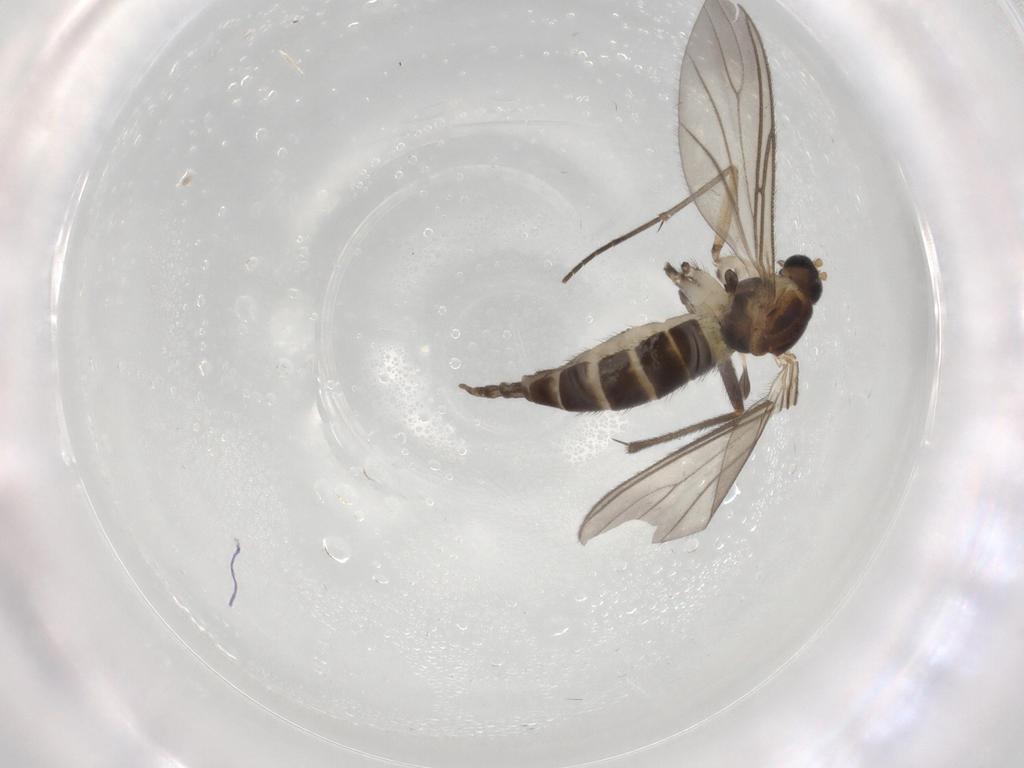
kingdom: Animalia
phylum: Arthropoda
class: Insecta
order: Diptera
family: Sciaridae
